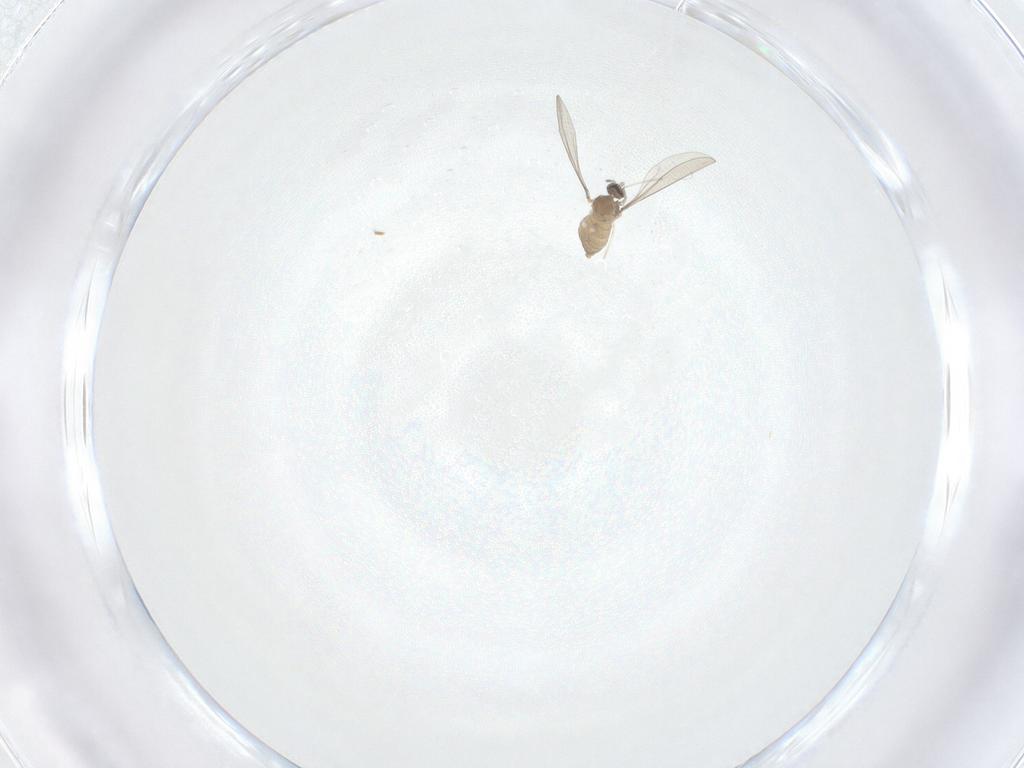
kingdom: Animalia
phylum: Arthropoda
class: Insecta
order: Diptera
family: Cecidomyiidae
